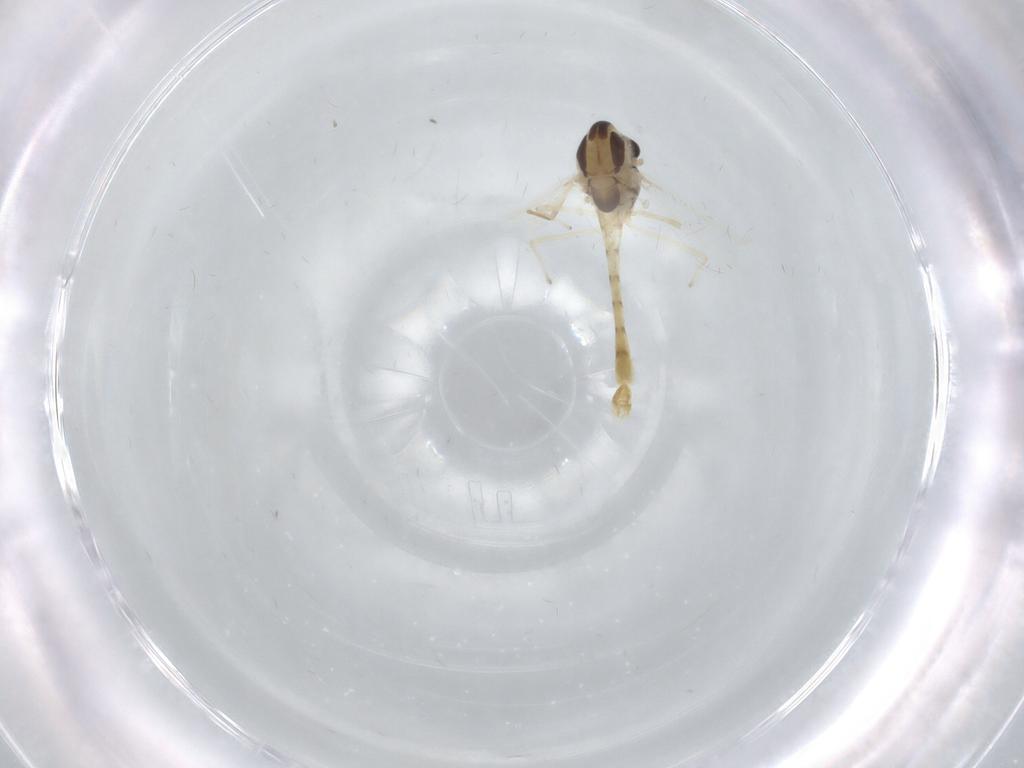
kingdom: Animalia
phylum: Arthropoda
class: Insecta
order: Diptera
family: Chironomidae
